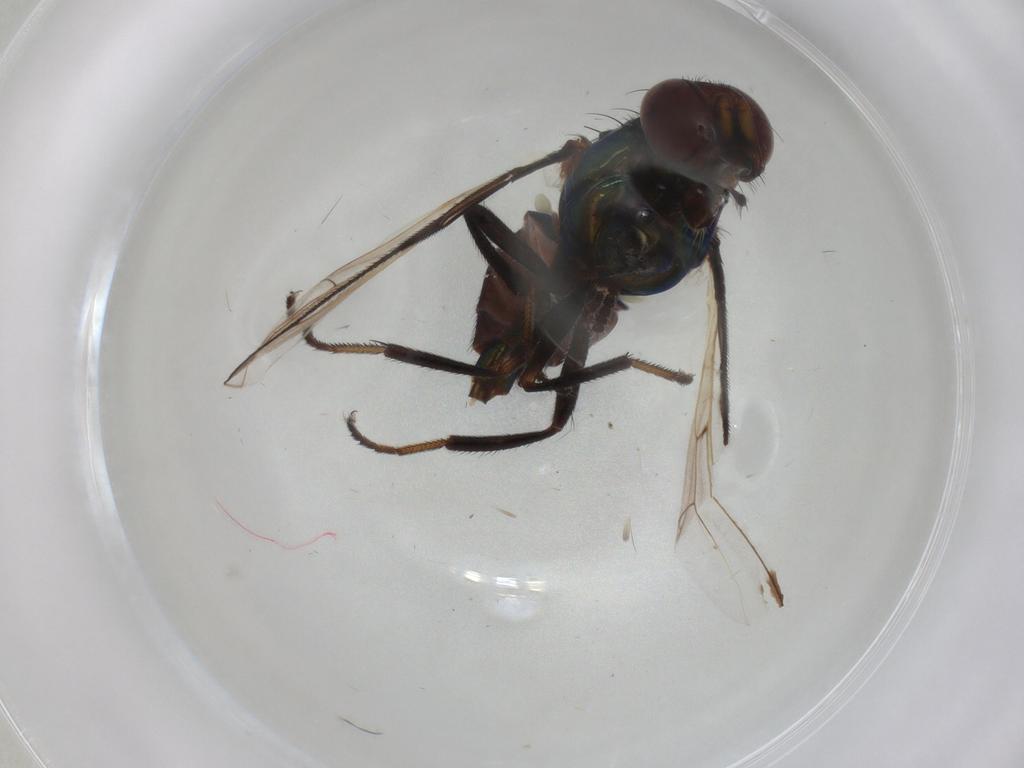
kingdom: Animalia
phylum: Arthropoda
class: Insecta
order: Diptera
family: Platystomatidae
